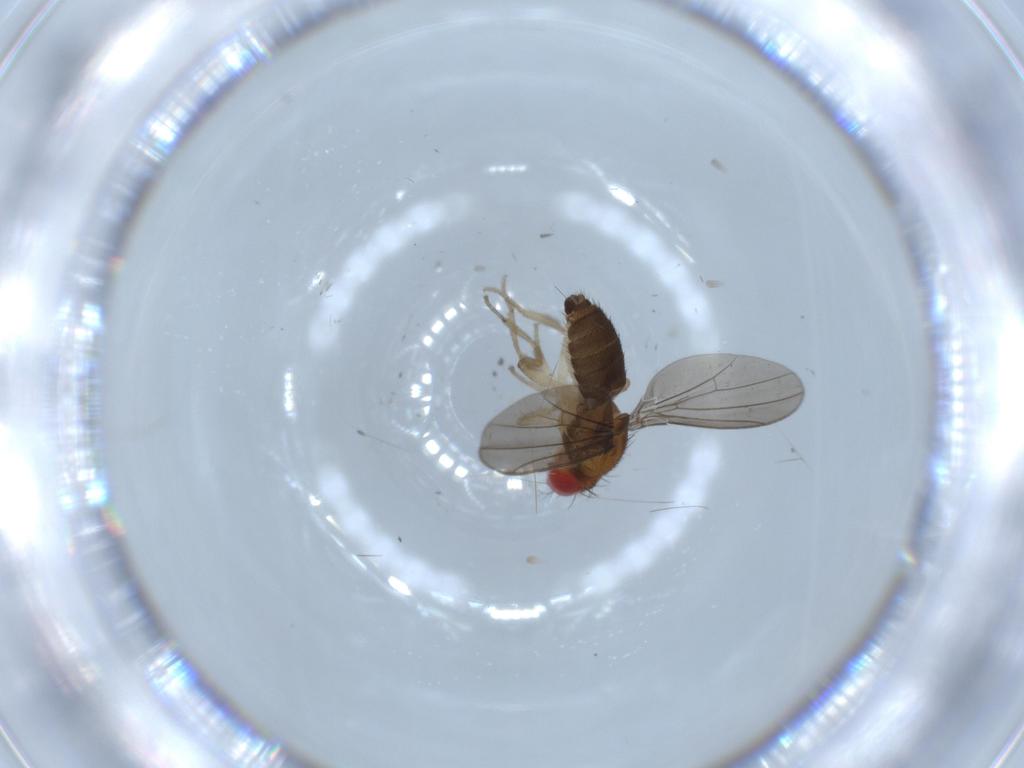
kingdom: Animalia
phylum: Arthropoda
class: Insecta
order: Diptera
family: Drosophilidae
